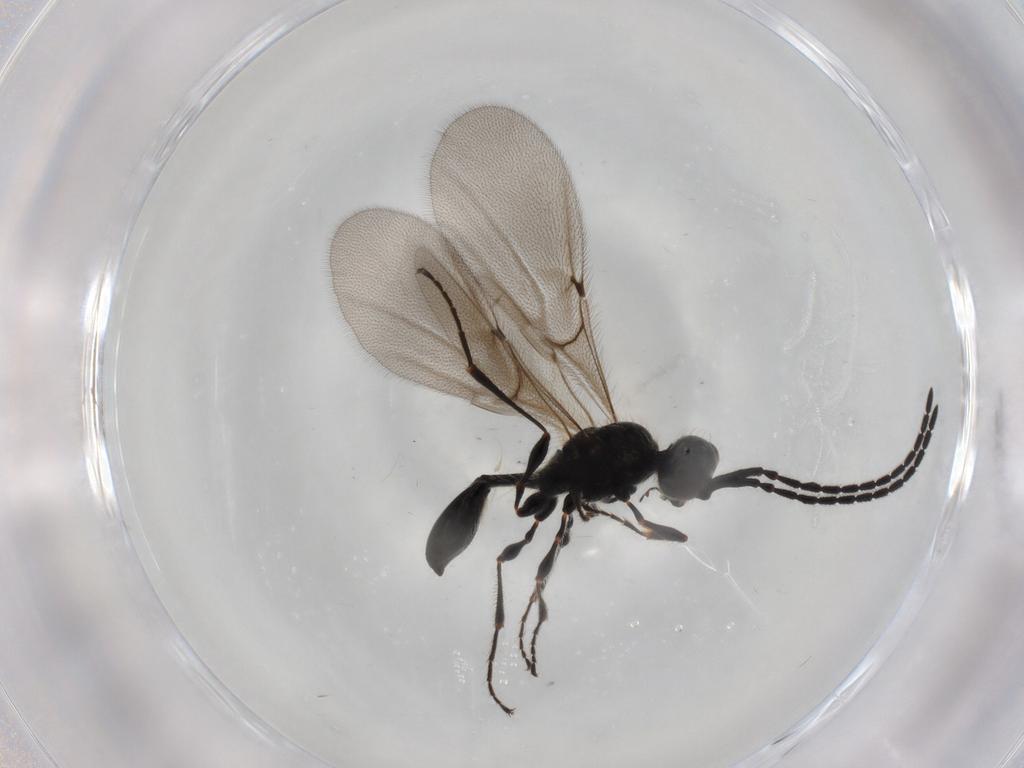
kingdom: Animalia
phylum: Arthropoda
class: Insecta
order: Hymenoptera
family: Diapriidae
